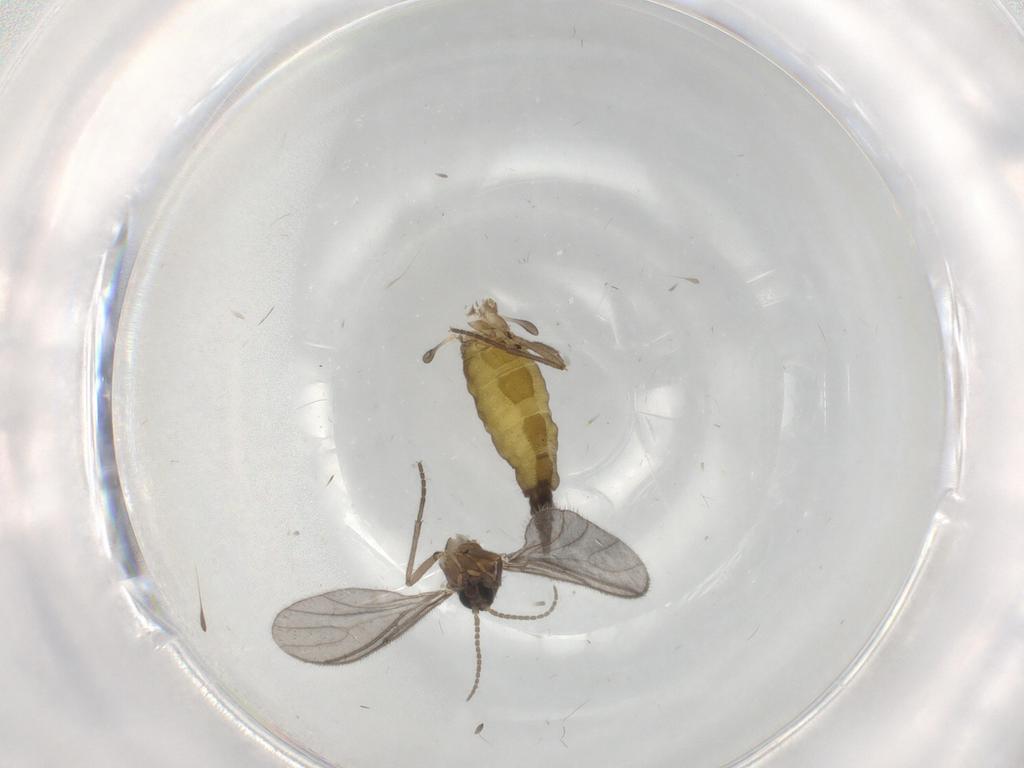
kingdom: Animalia
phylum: Arthropoda
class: Insecta
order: Diptera
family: Sciaridae
